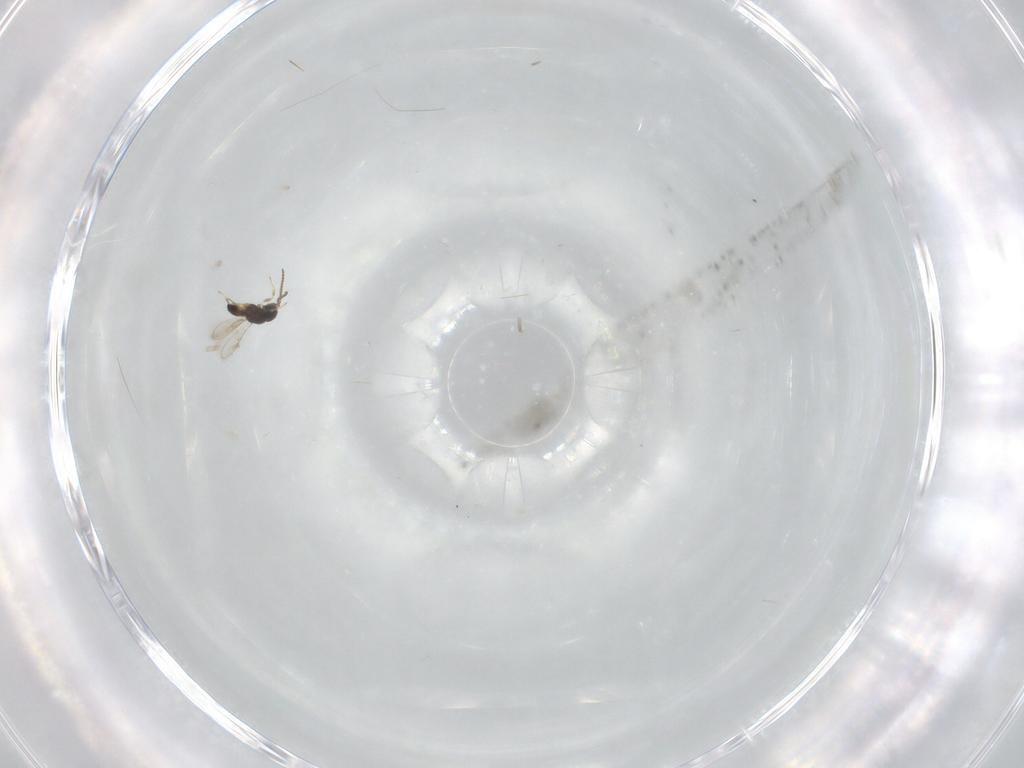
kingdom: Animalia
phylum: Arthropoda
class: Insecta
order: Hymenoptera
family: Scelionidae
